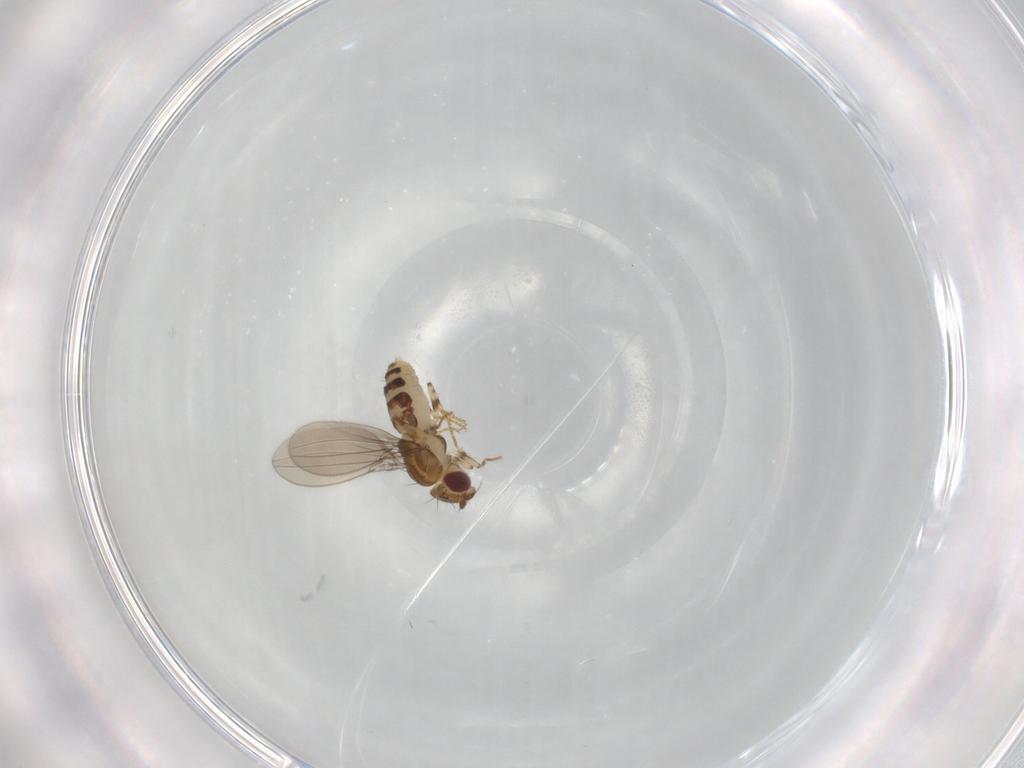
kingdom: Animalia
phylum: Arthropoda
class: Insecta
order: Diptera
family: Asteiidae
